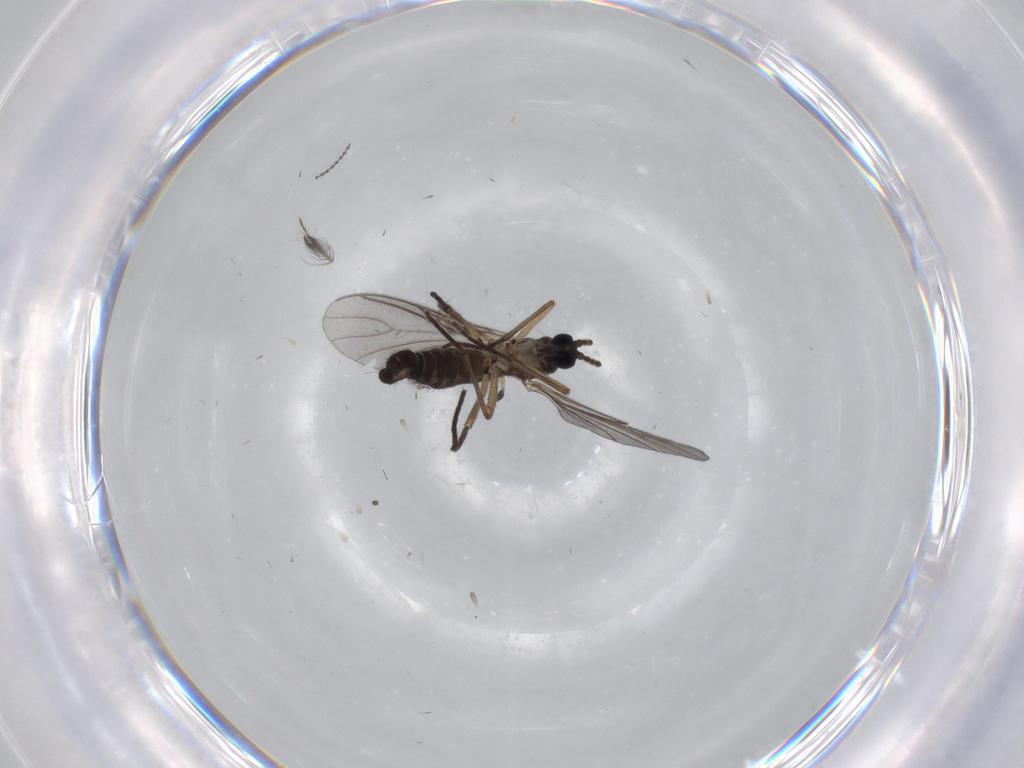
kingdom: Animalia
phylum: Arthropoda
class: Insecta
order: Diptera
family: Sciaridae
